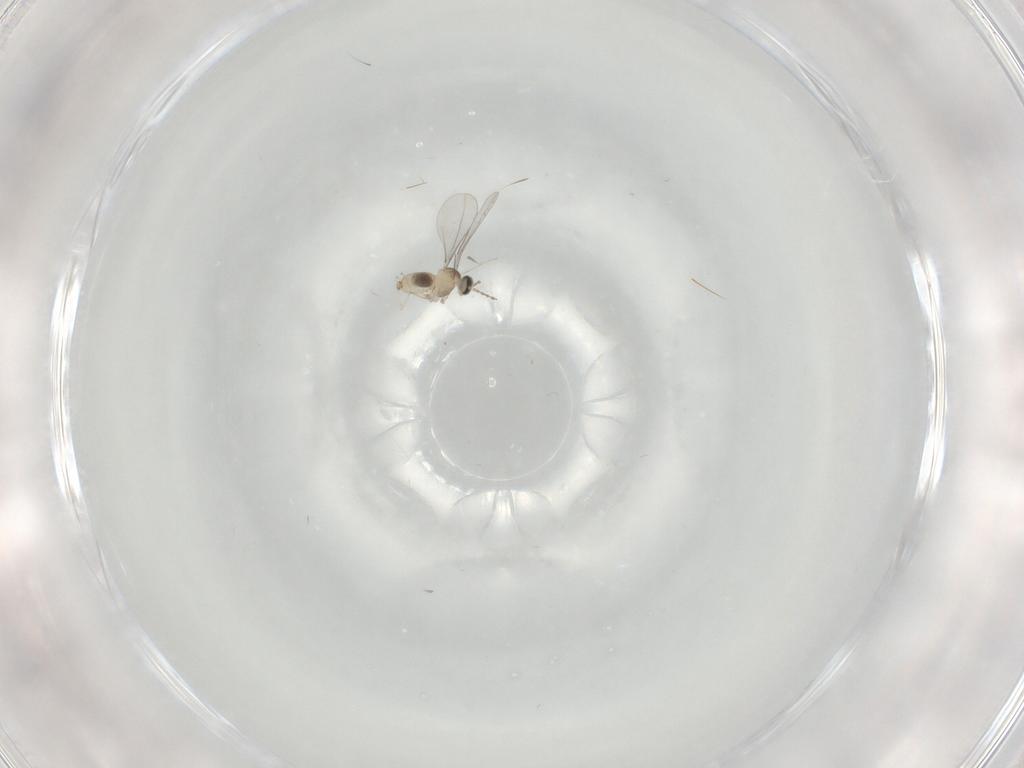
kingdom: Animalia
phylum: Arthropoda
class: Insecta
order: Diptera
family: Cecidomyiidae
